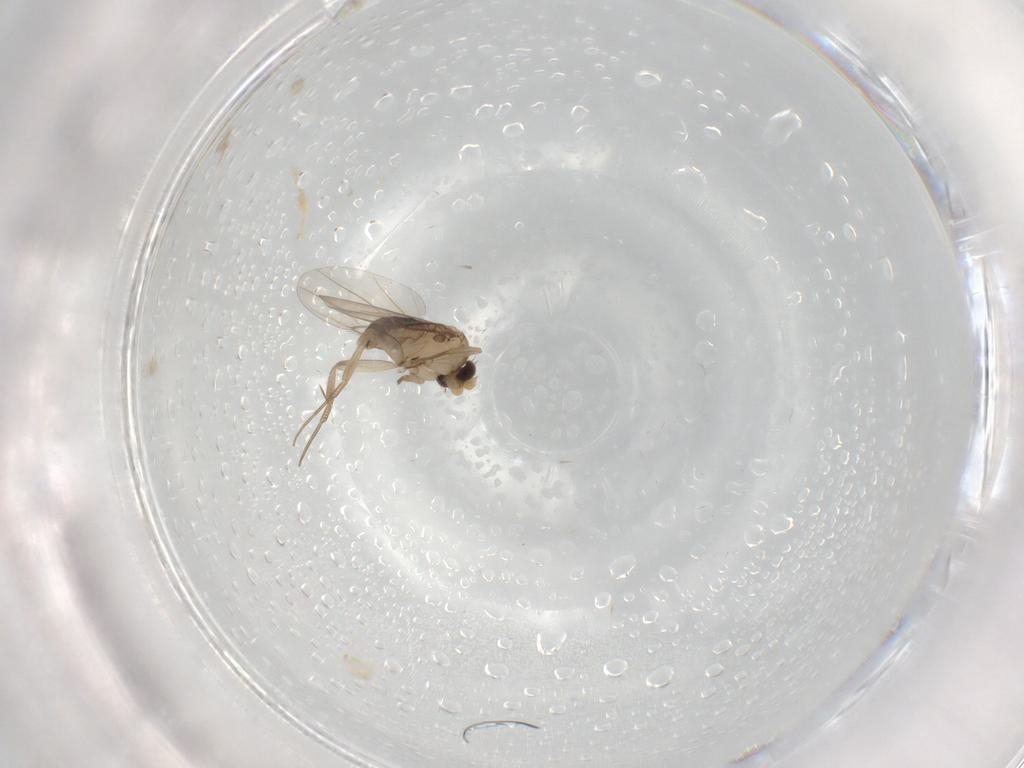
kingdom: Animalia
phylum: Arthropoda
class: Insecta
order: Diptera
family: Phoridae
